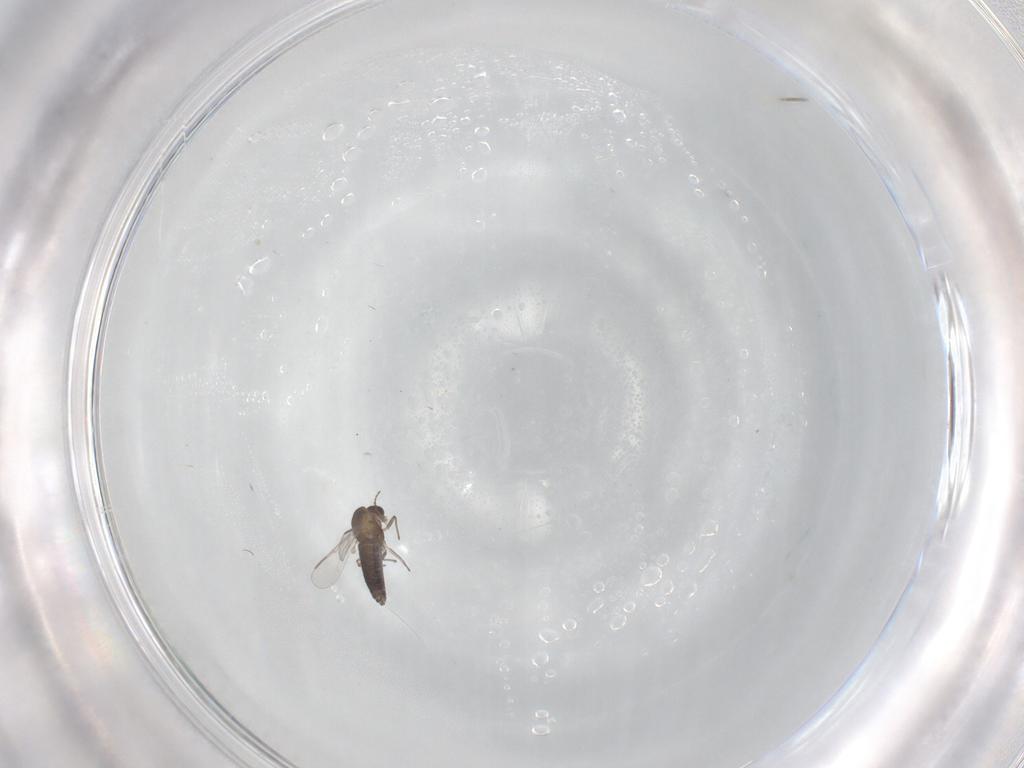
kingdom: Animalia
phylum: Arthropoda
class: Insecta
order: Diptera
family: Chironomidae
